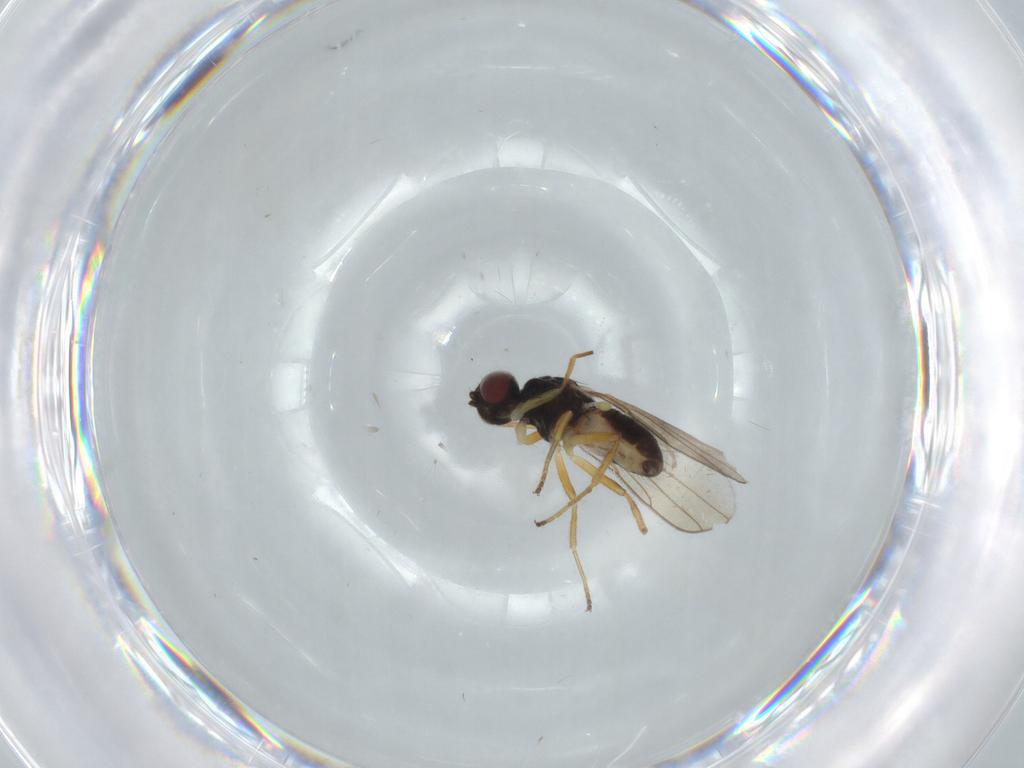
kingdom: Animalia
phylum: Arthropoda
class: Insecta
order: Diptera
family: Chloropidae
